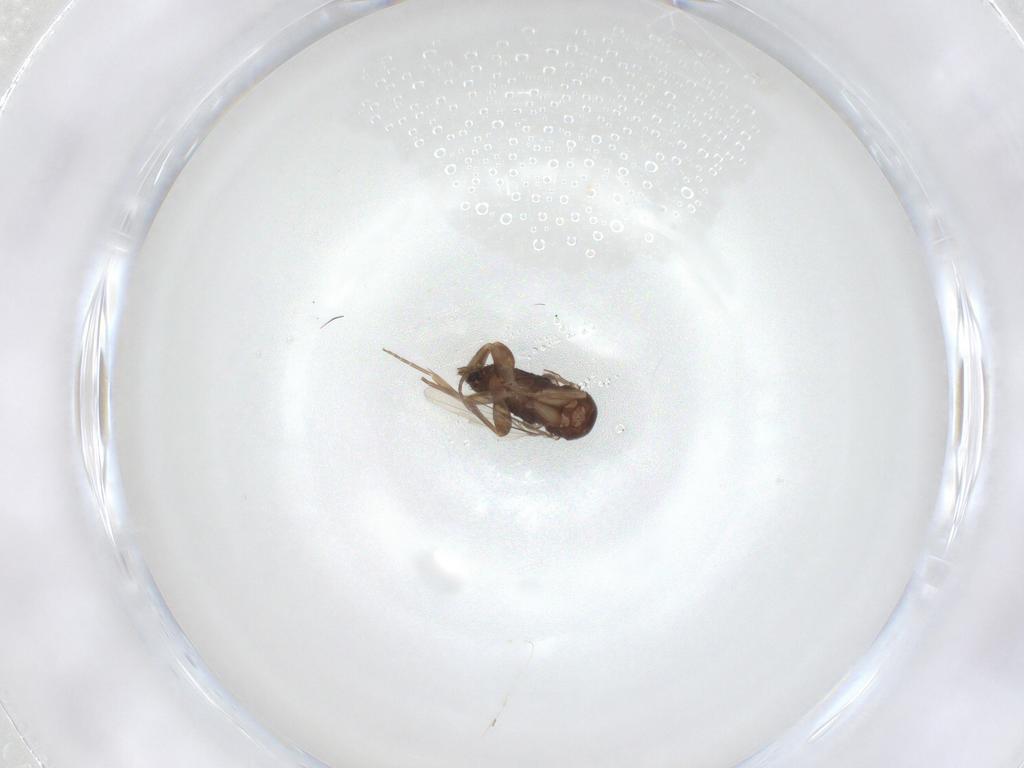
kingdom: Animalia
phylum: Arthropoda
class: Insecta
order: Diptera
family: Phoridae
